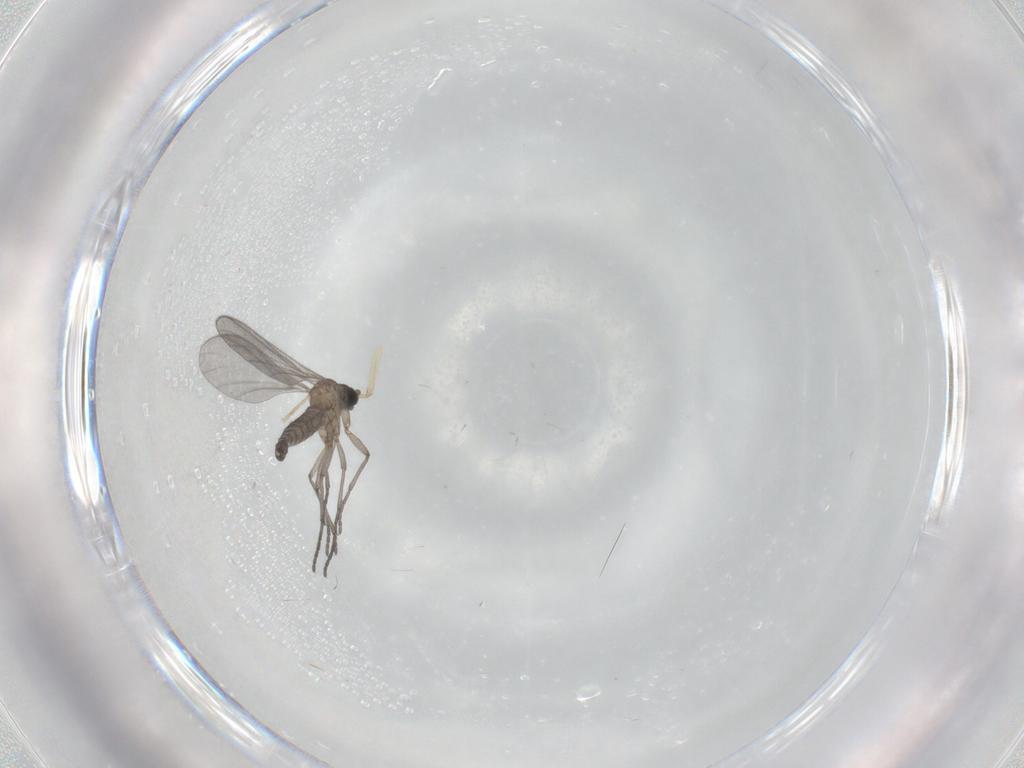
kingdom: Animalia
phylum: Arthropoda
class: Insecta
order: Diptera
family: Sciaridae
